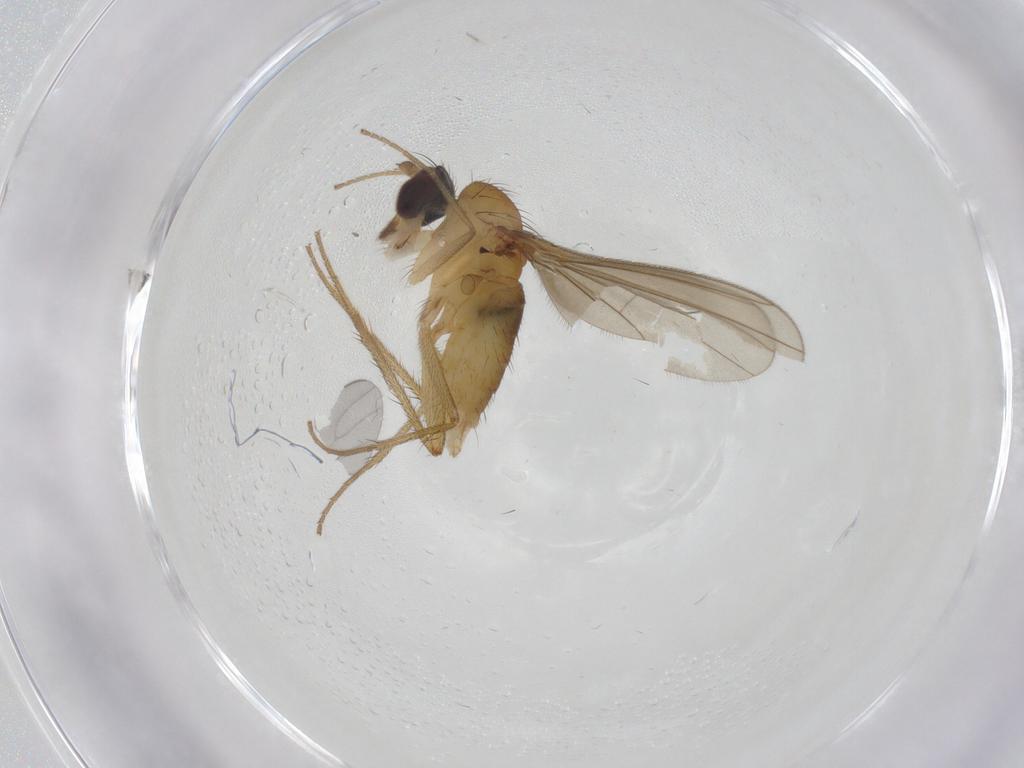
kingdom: Animalia
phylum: Arthropoda
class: Insecta
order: Diptera
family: Dolichopodidae
